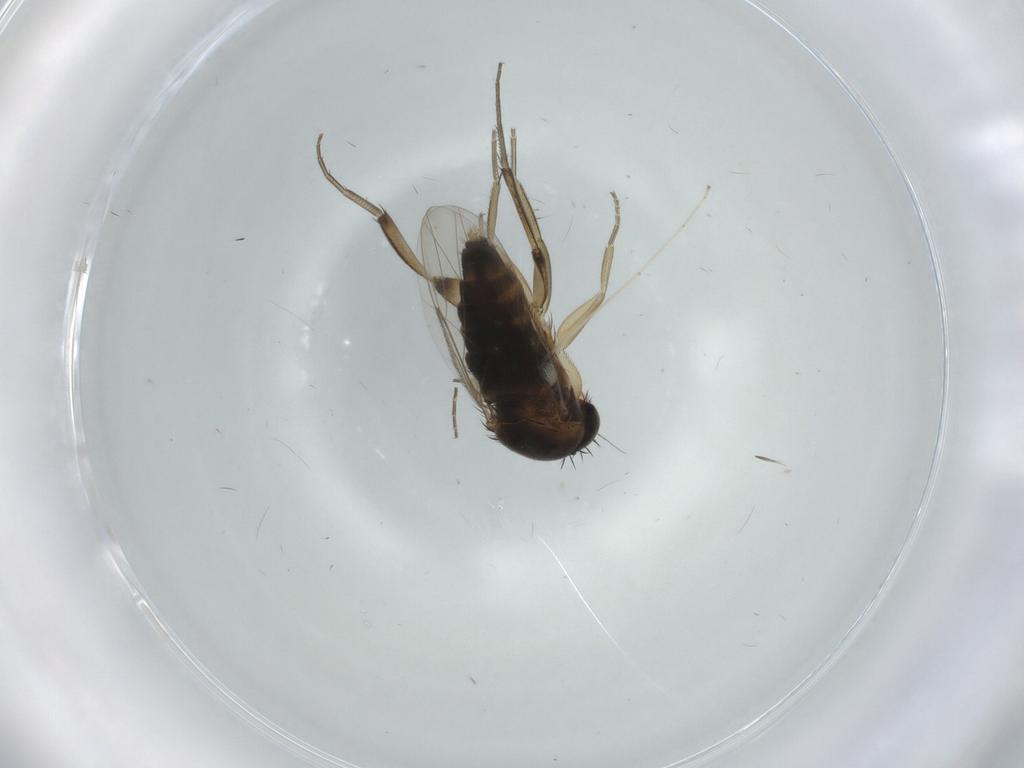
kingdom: Animalia
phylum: Arthropoda
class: Insecta
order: Diptera
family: Phoridae
